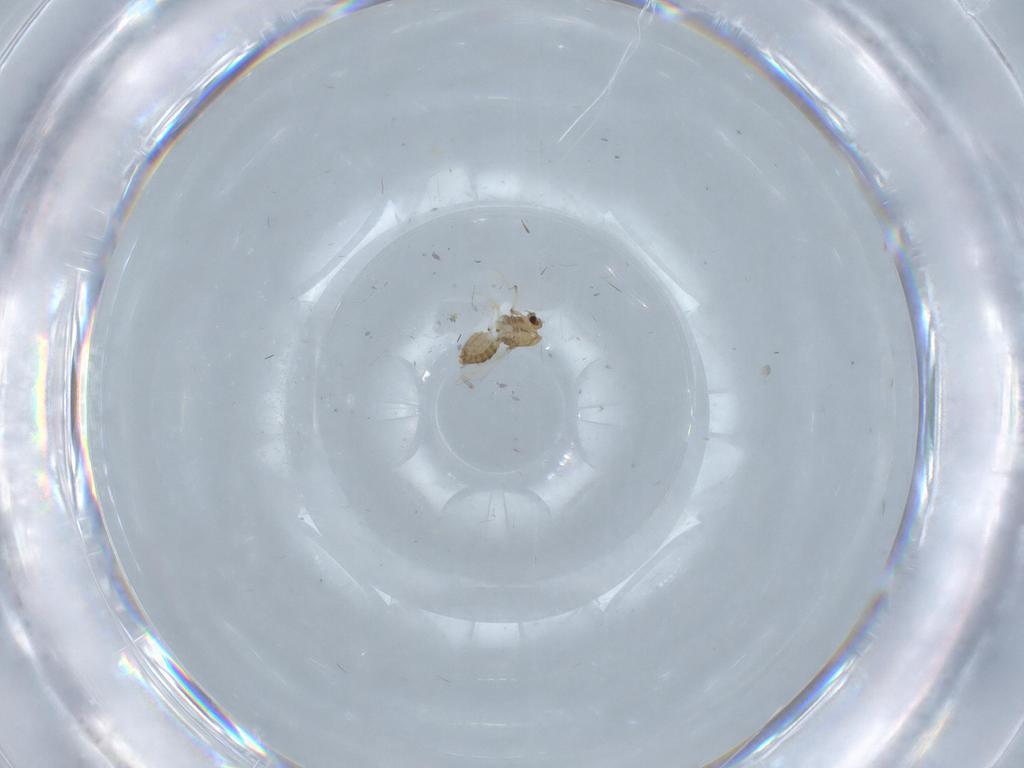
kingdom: Animalia
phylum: Arthropoda
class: Insecta
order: Diptera
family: Chironomidae
